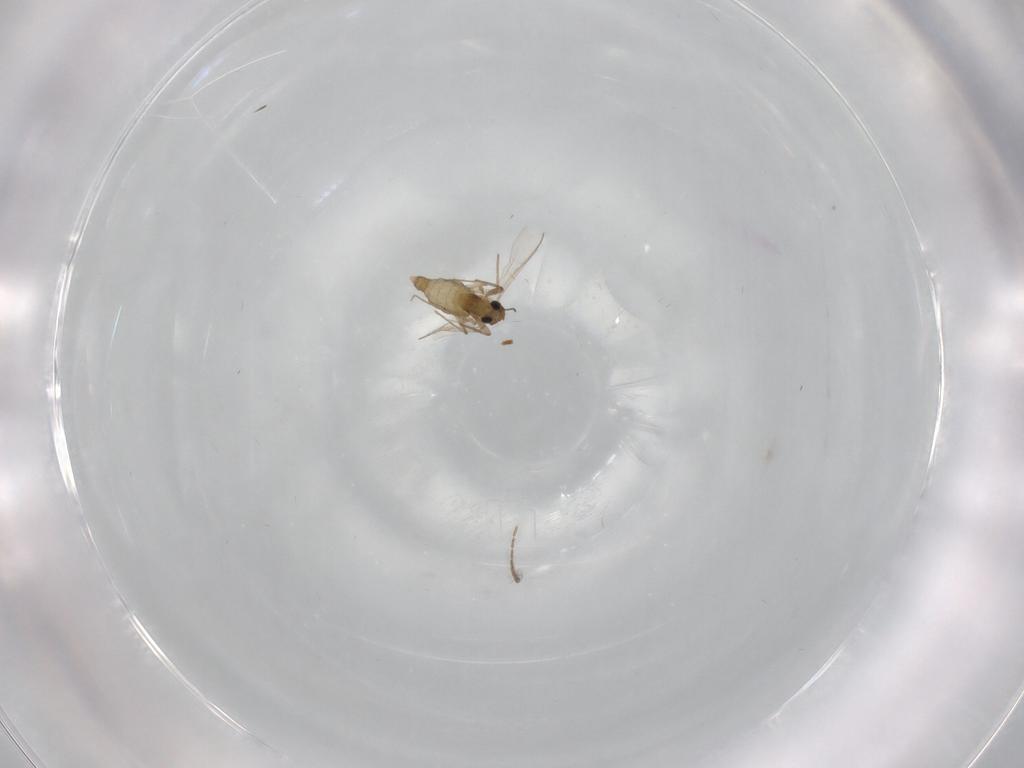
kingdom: Animalia
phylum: Arthropoda
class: Insecta
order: Diptera
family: Chironomidae
